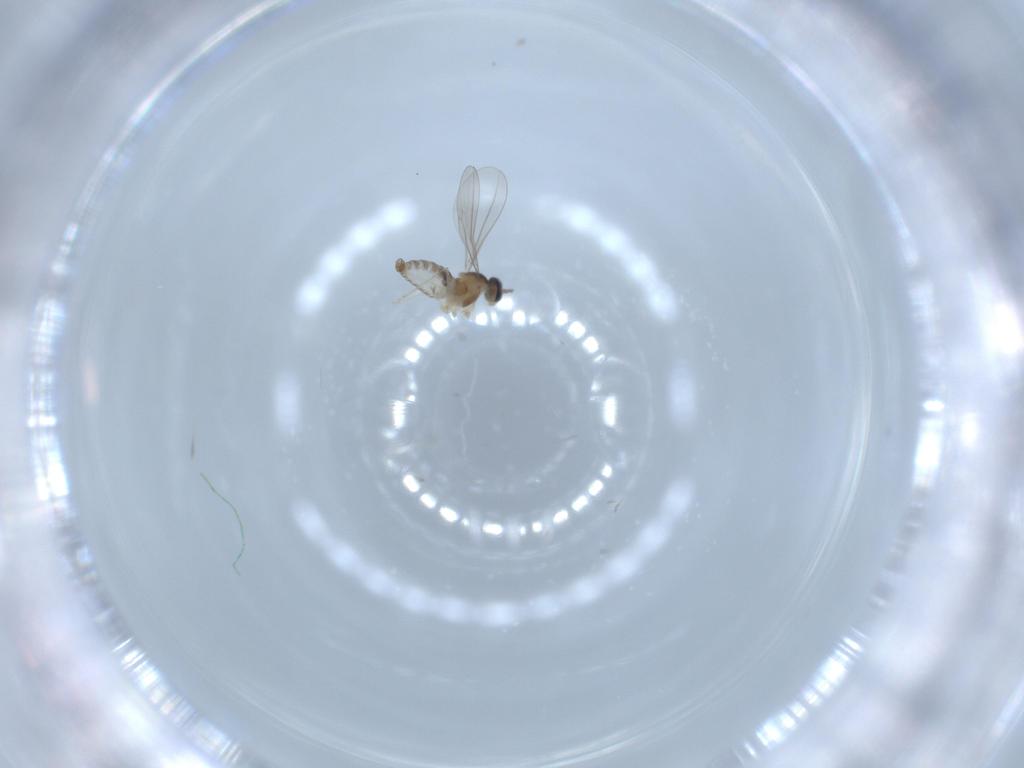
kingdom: Animalia
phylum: Arthropoda
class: Insecta
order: Diptera
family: Cecidomyiidae
